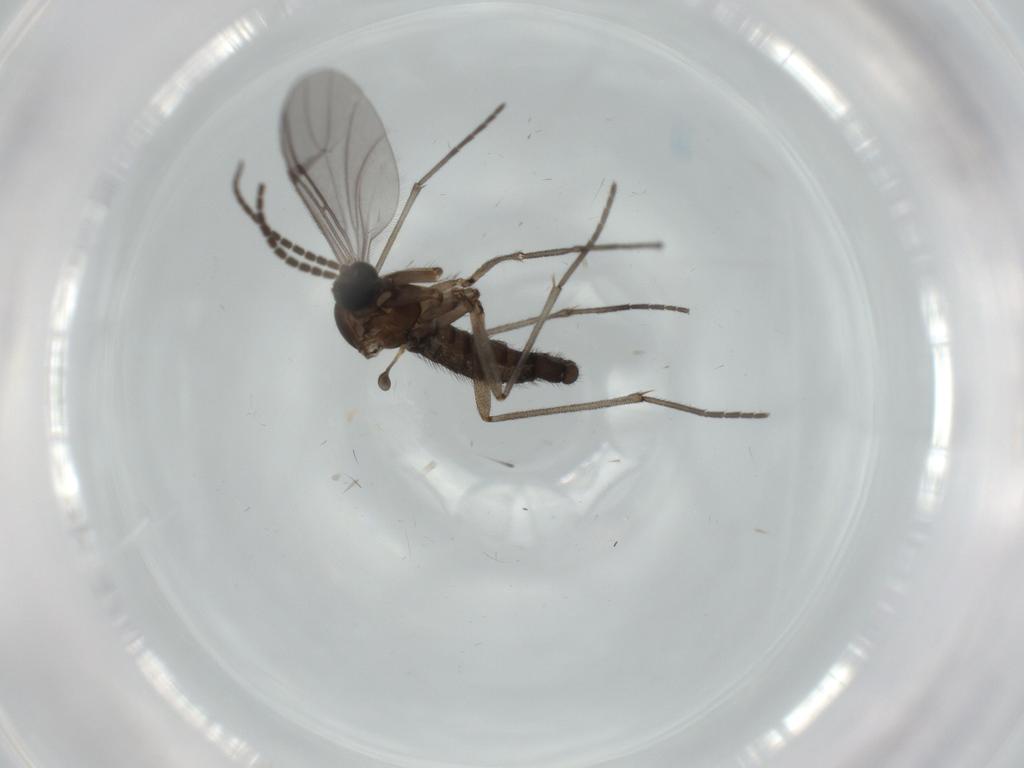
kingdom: Animalia
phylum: Arthropoda
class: Insecta
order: Diptera
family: Sciaridae
